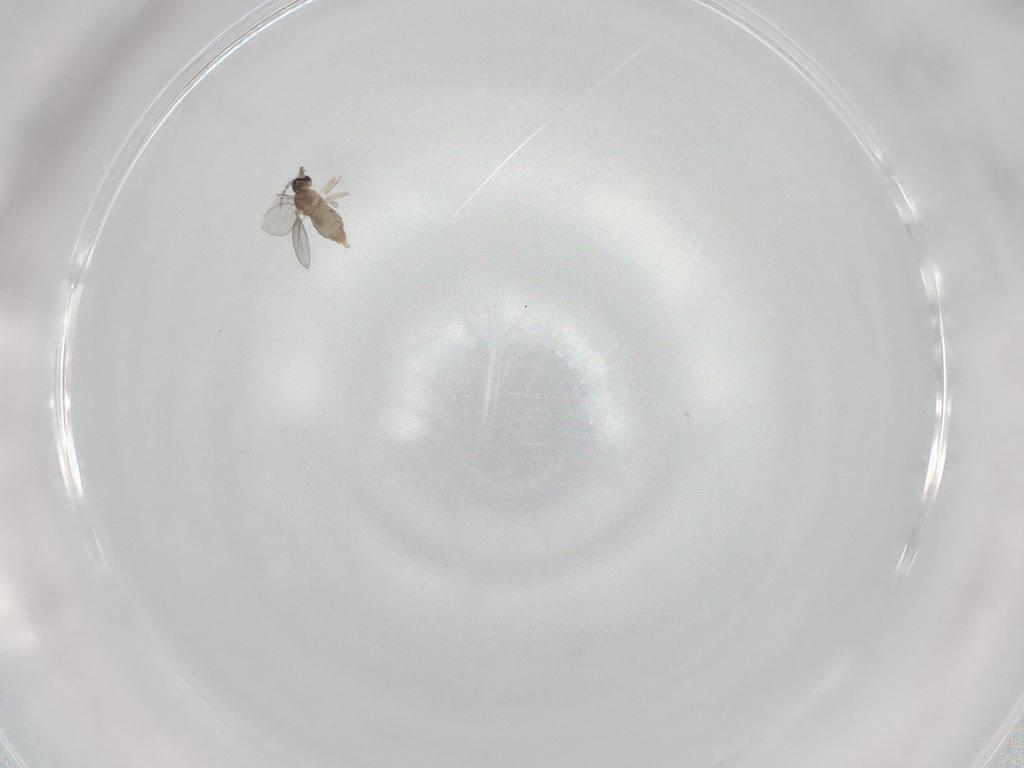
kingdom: Animalia
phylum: Arthropoda
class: Insecta
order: Diptera
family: Cecidomyiidae
